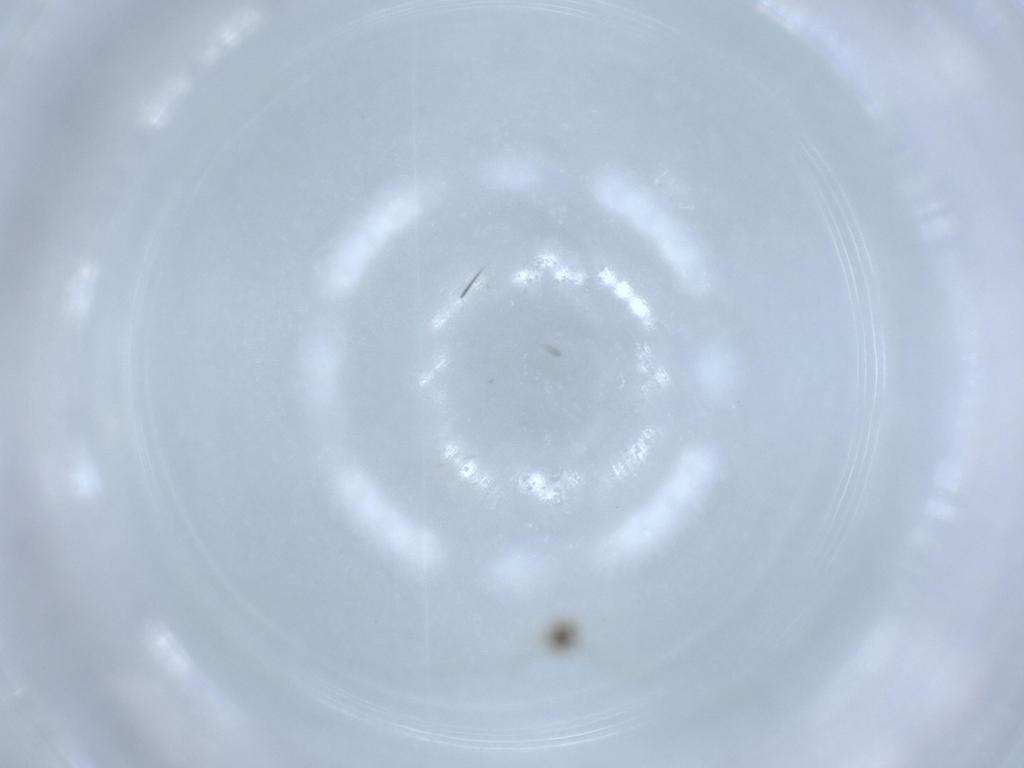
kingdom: Animalia
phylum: Arthropoda
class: Insecta
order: Diptera
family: Cecidomyiidae
